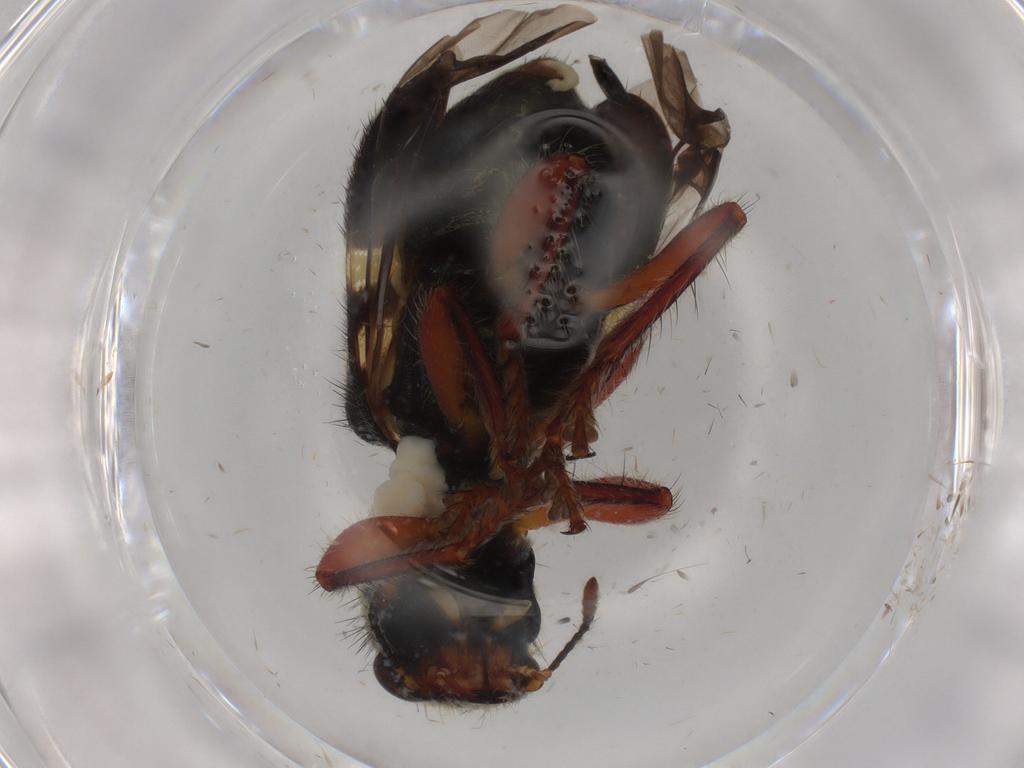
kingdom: Animalia
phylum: Arthropoda
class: Insecta
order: Coleoptera
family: Cleridae
